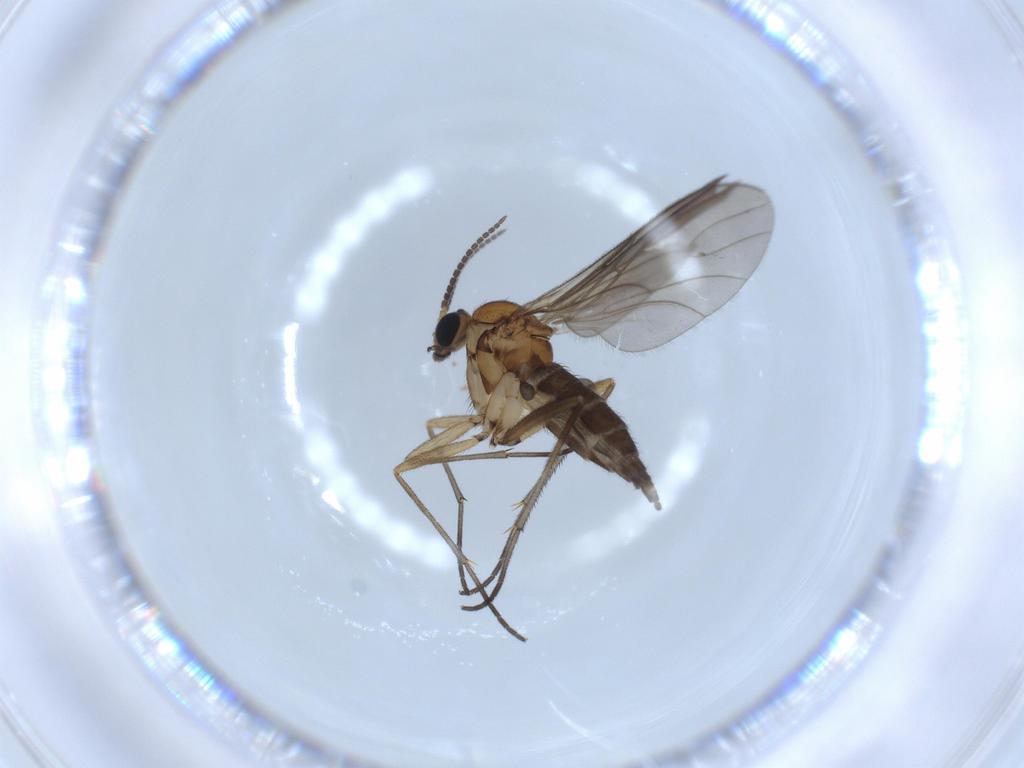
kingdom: Animalia
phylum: Arthropoda
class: Insecta
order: Diptera
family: Sciaridae
